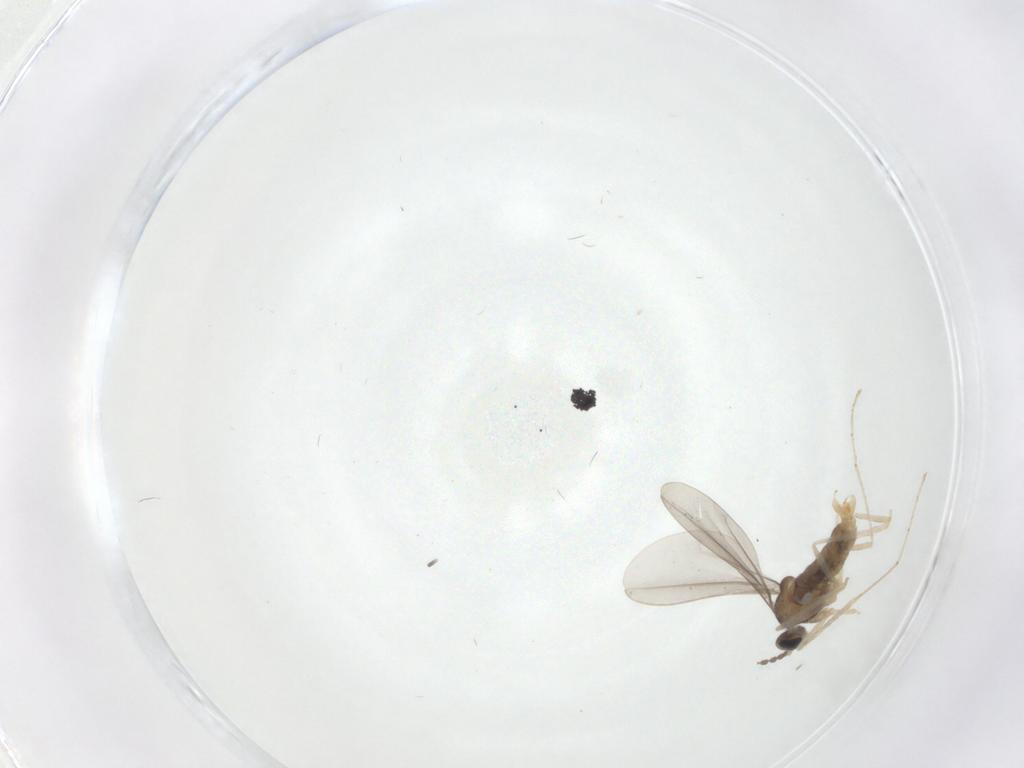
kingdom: Animalia
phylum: Arthropoda
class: Insecta
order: Diptera
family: Cecidomyiidae
